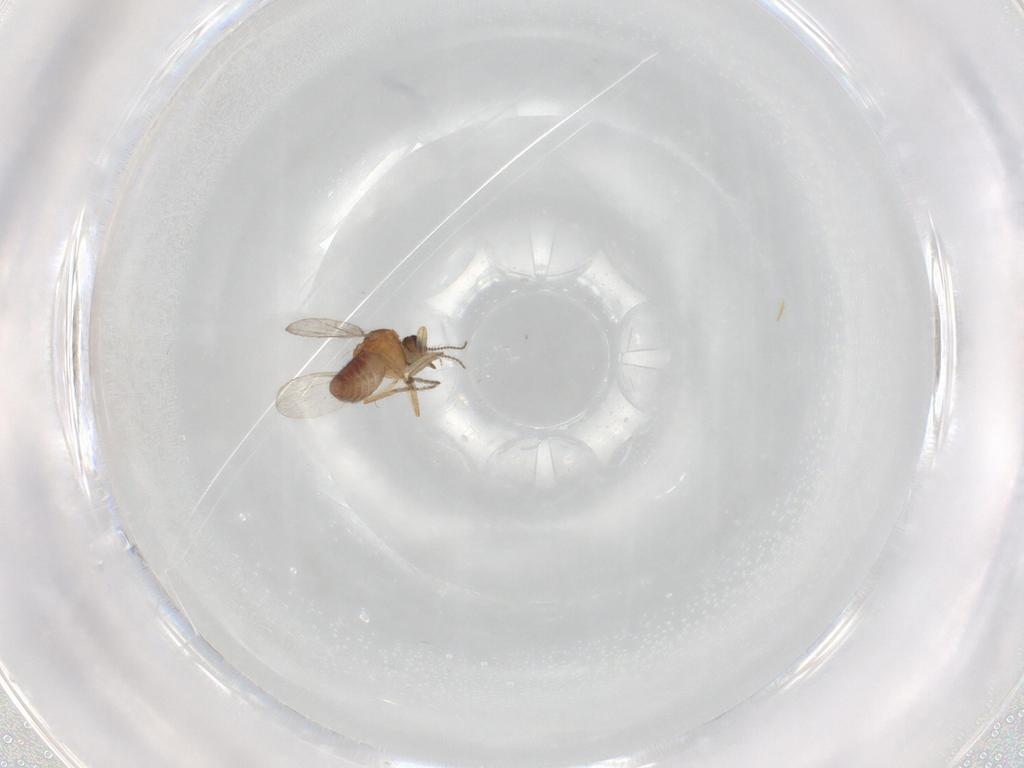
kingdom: Animalia
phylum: Arthropoda
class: Insecta
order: Diptera
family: Ceratopogonidae
